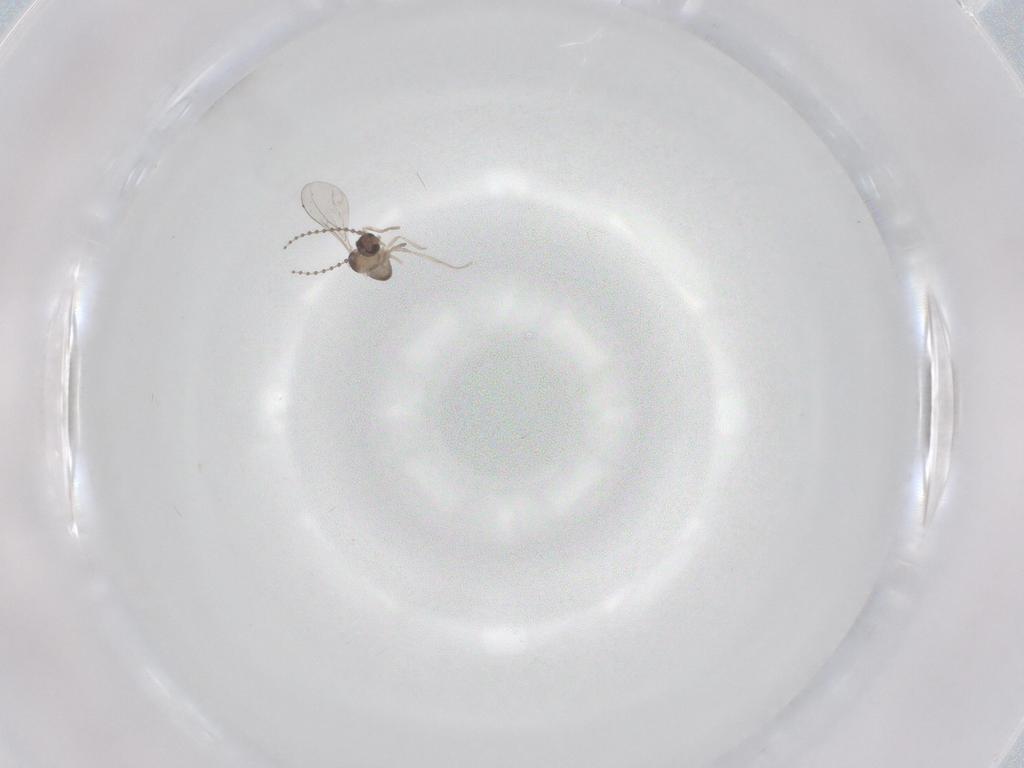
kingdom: Animalia
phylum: Arthropoda
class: Insecta
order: Diptera
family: Cecidomyiidae
